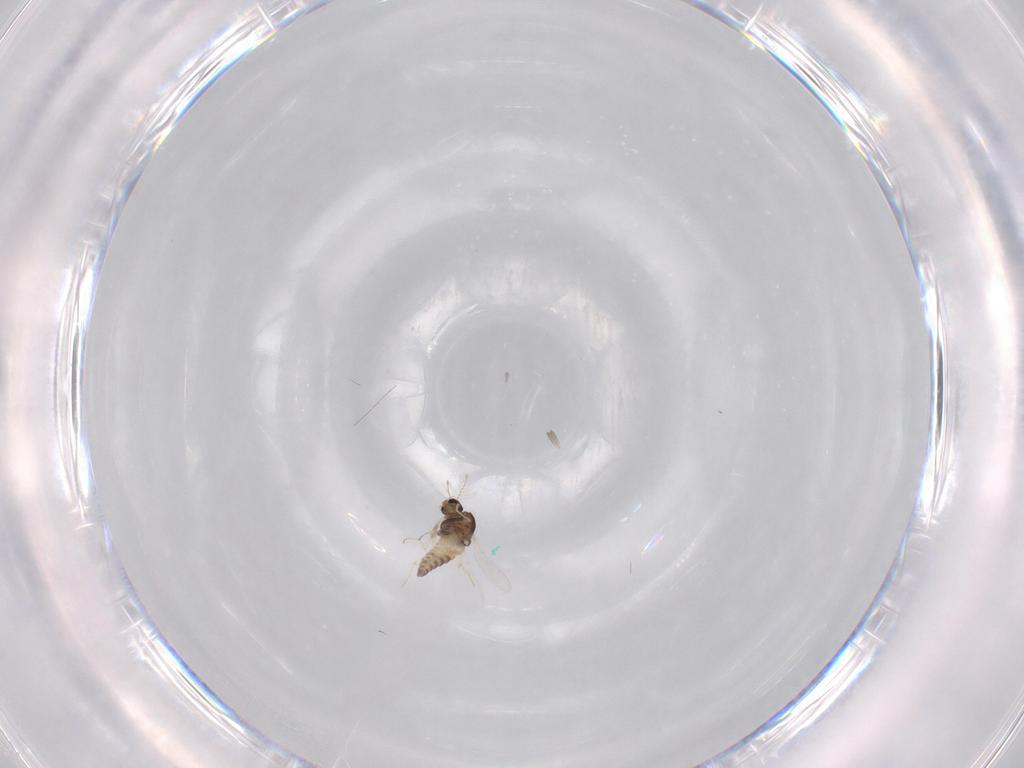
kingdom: Animalia
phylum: Arthropoda
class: Insecta
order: Diptera
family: Chironomidae
